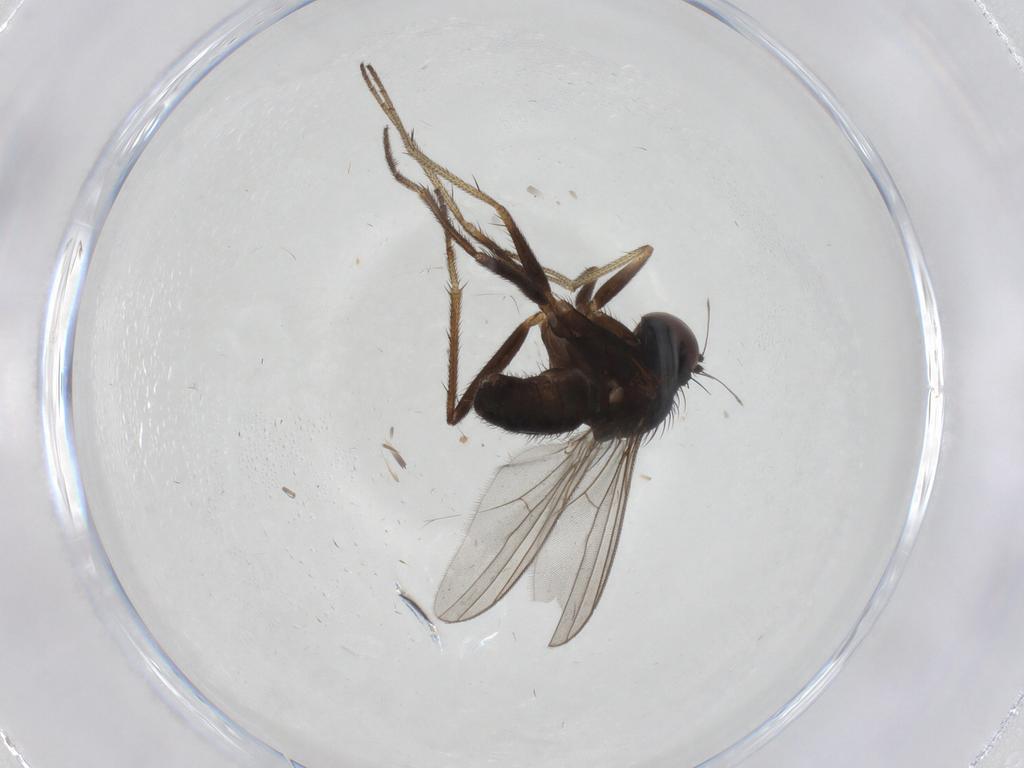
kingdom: Animalia
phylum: Arthropoda
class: Insecta
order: Diptera
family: Dolichopodidae
